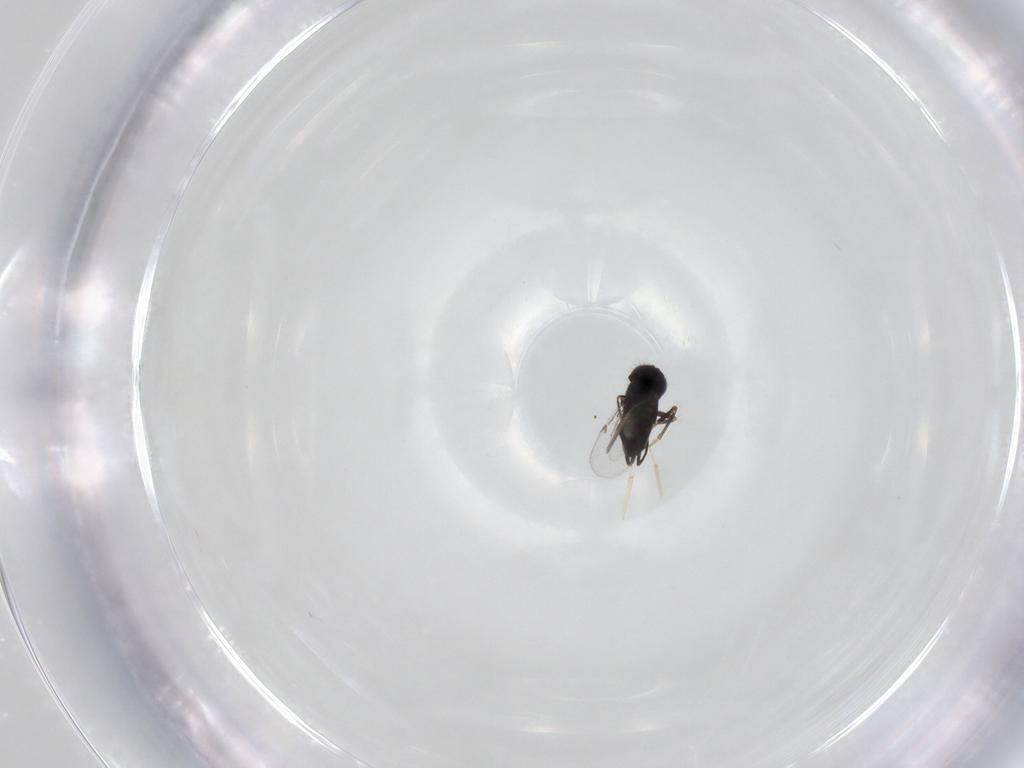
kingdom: Animalia
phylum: Arthropoda
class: Insecta
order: Hymenoptera
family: Encyrtidae
